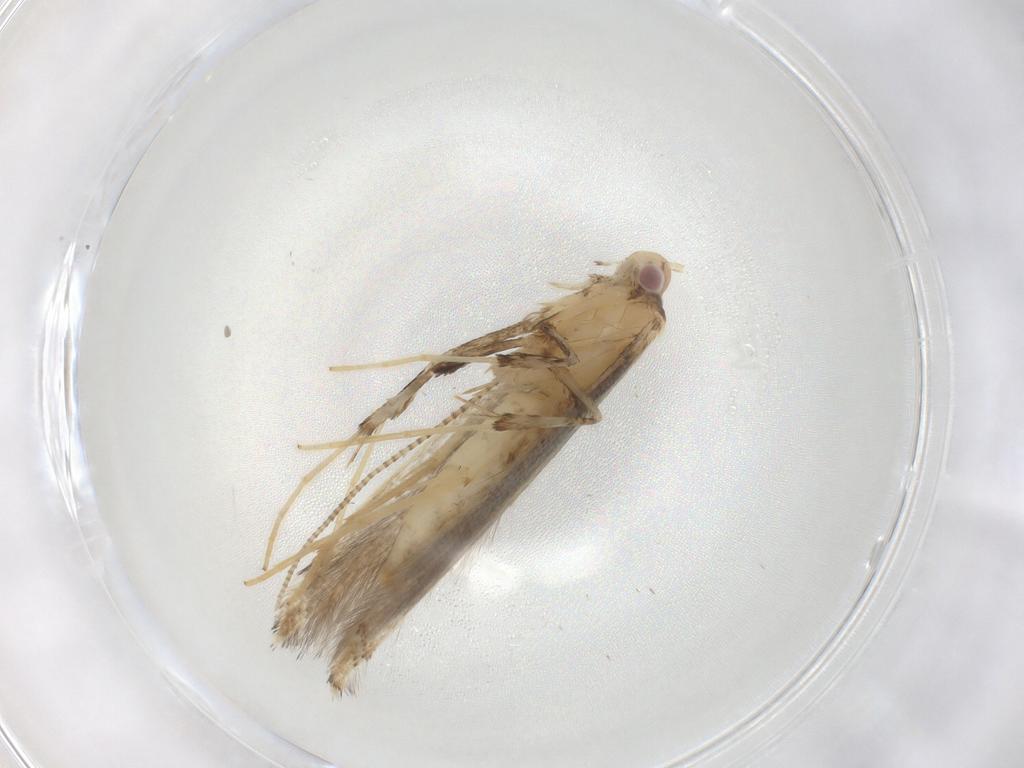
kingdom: Animalia
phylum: Arthropoda
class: Insecta
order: Lepidoptera
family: Gracillariidae
